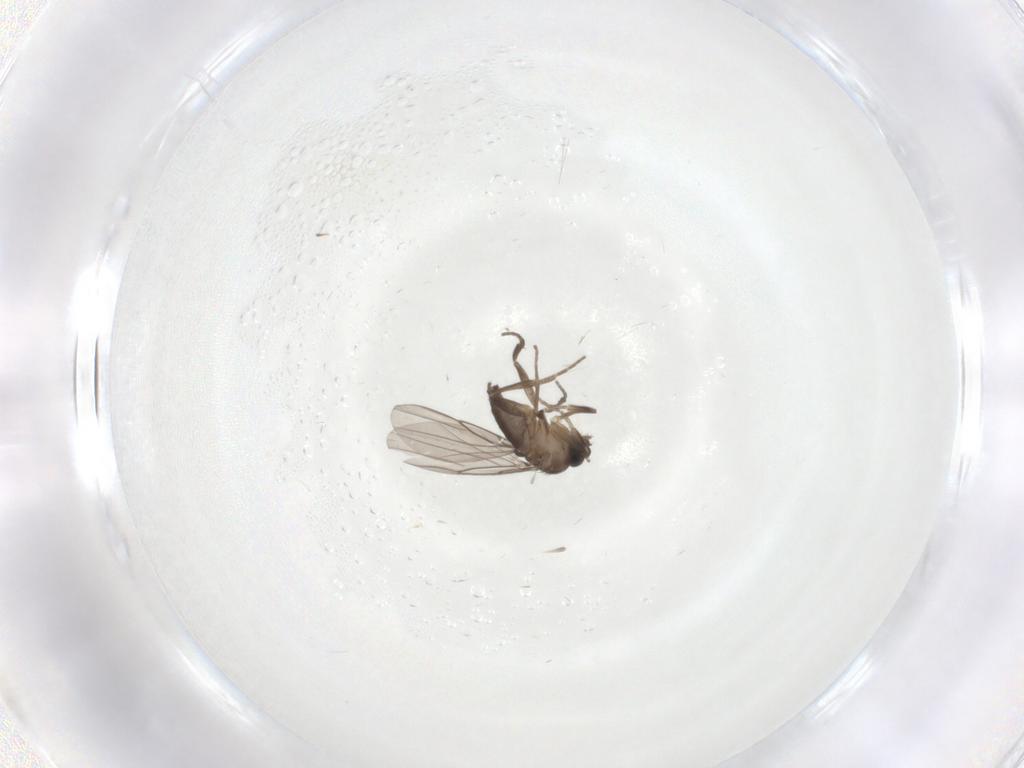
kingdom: Animalia
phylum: Arthropoda
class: Insecta
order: Diptera
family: Phoridae
